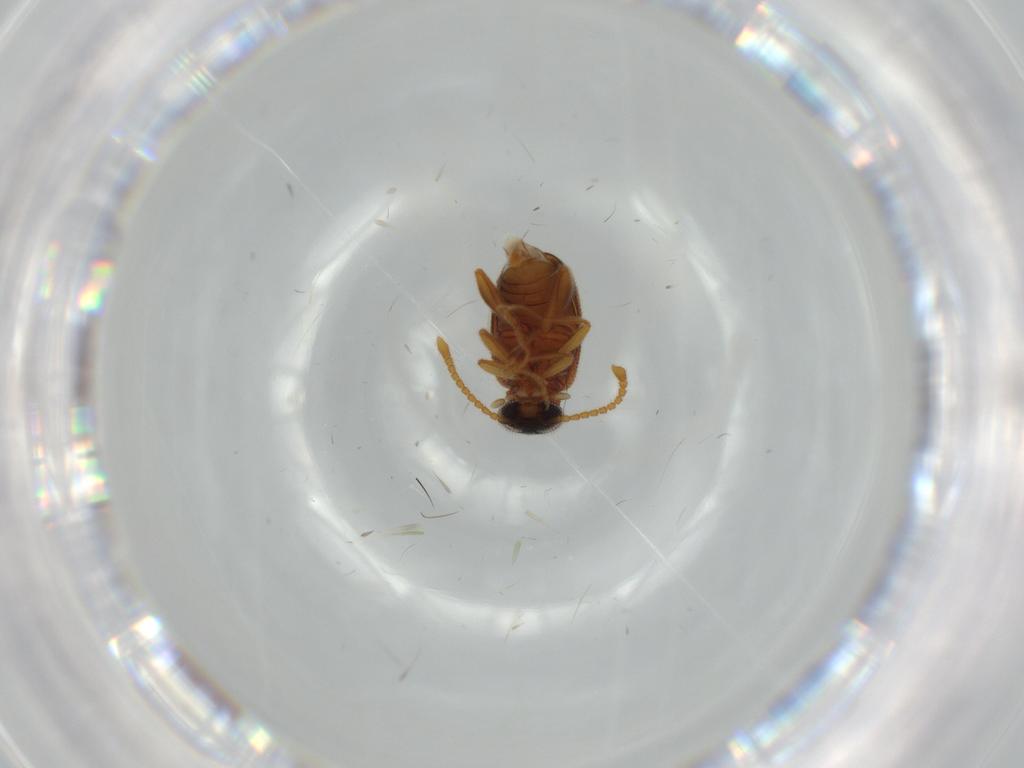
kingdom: Animalia
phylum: Arthropoda
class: Insecta
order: Coleoptera
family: Aderidae
